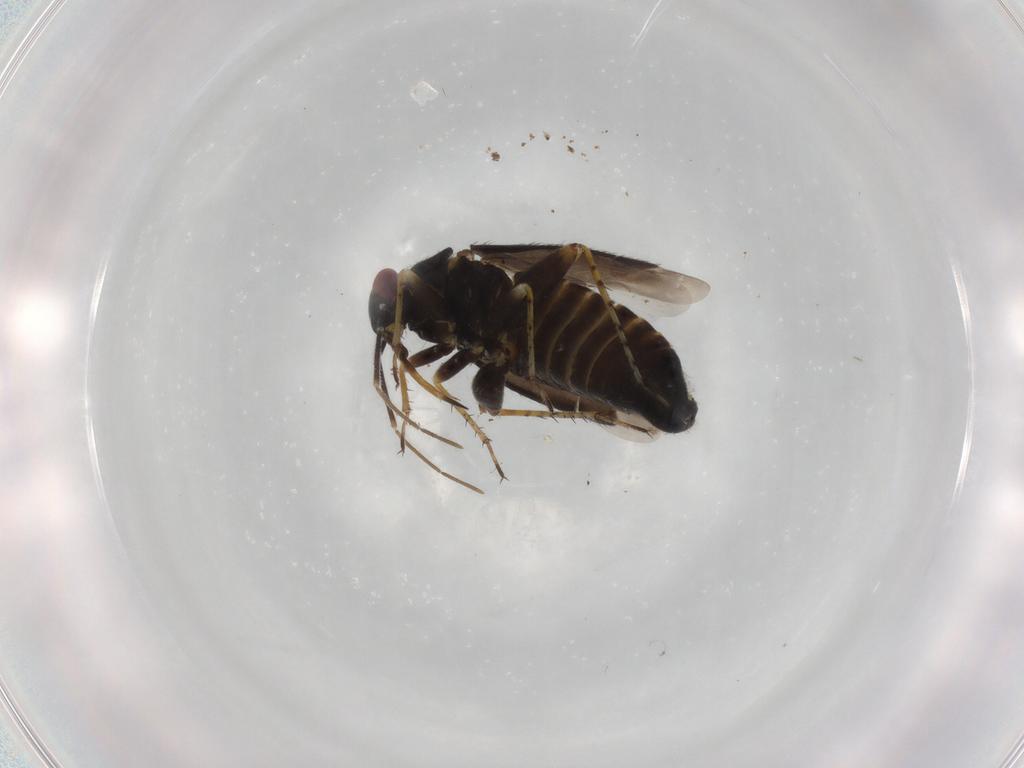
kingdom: Animalia
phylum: Arthropoda
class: Insecta
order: Hemiptera
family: Miridae
